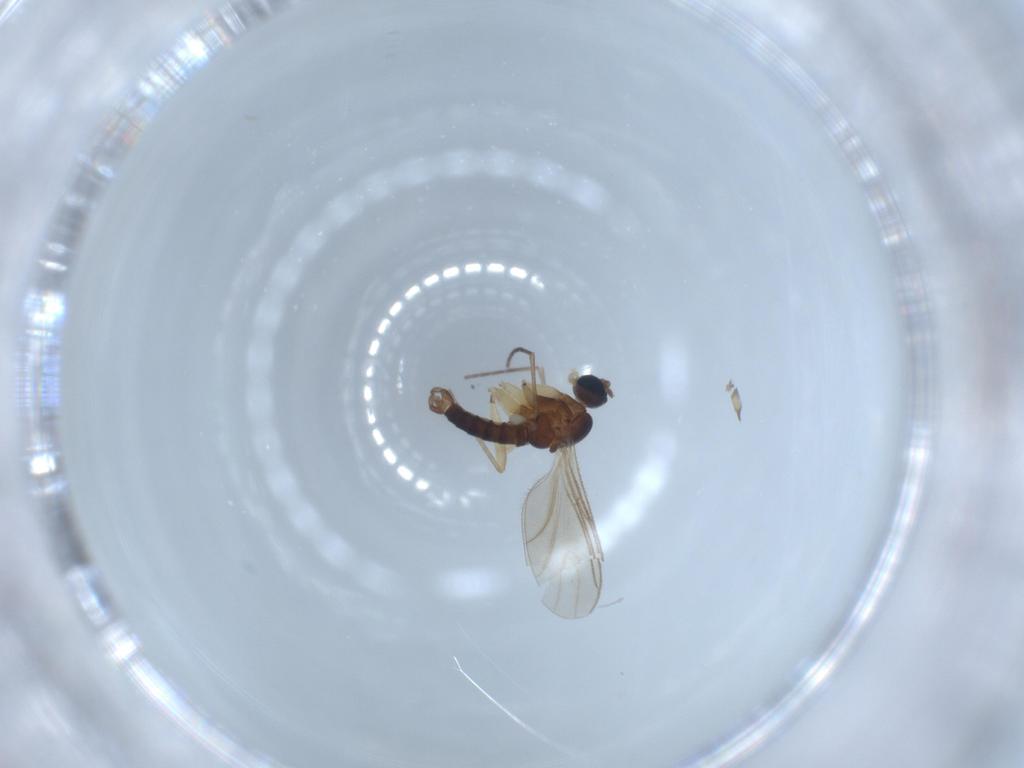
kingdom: Animalia
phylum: Arthropoda
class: Insecta
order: Diptera
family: Sciaridae
